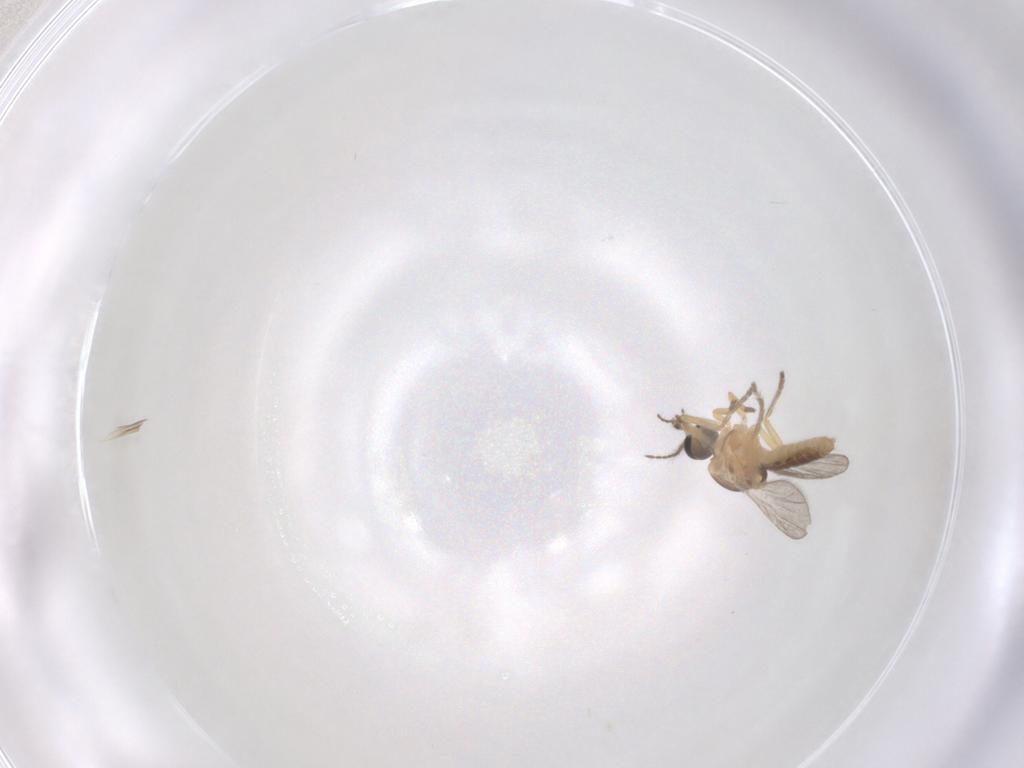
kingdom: Animalia
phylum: Arthropoda
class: Insecta
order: Diptera
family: Ceratopogonidae
